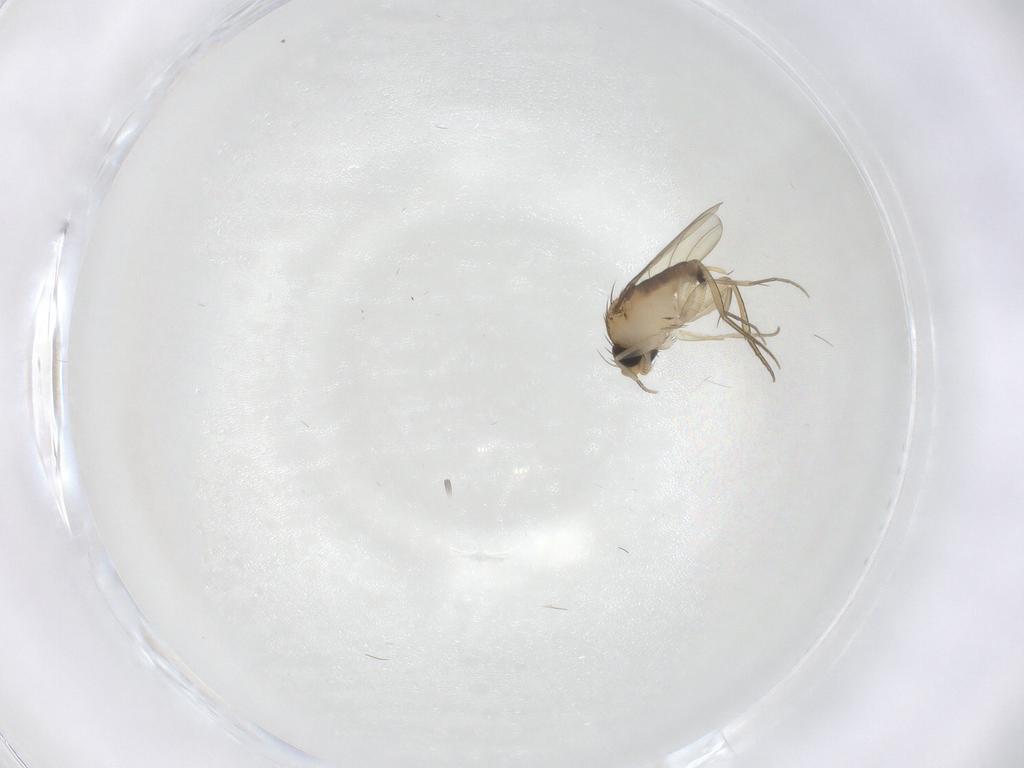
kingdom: Animalia
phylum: Arthropoda
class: Insecta
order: Diptera
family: Phoridae
